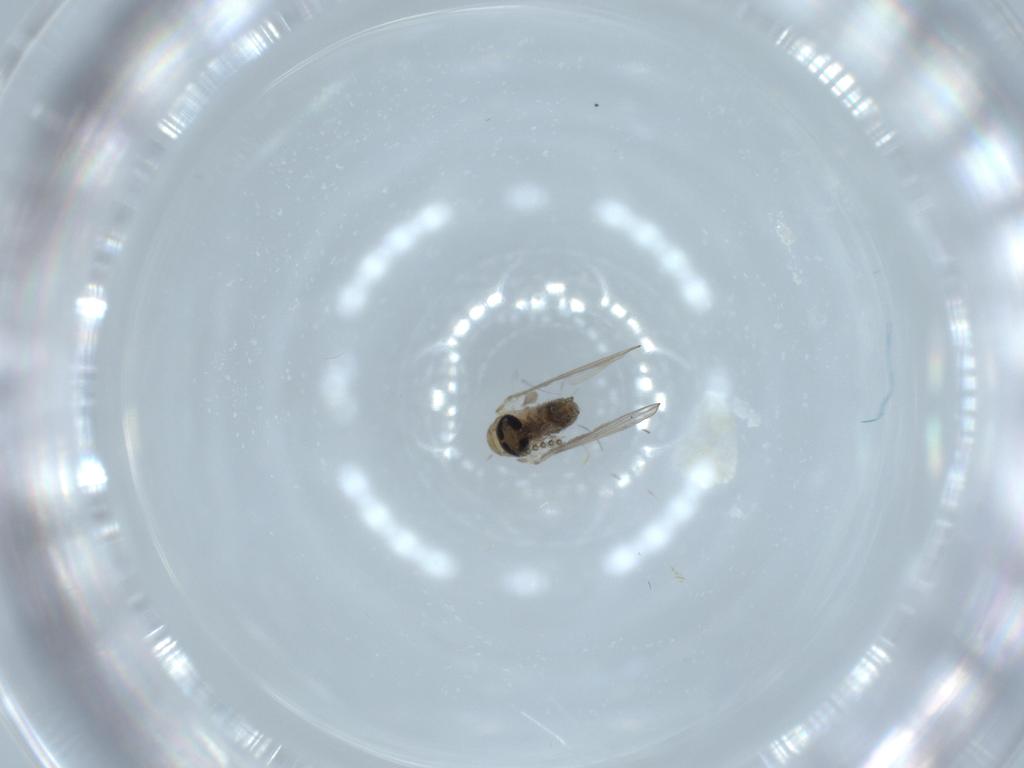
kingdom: Animalia
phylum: Arthropoda
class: Insecta
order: Diptera
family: Psychodidae
